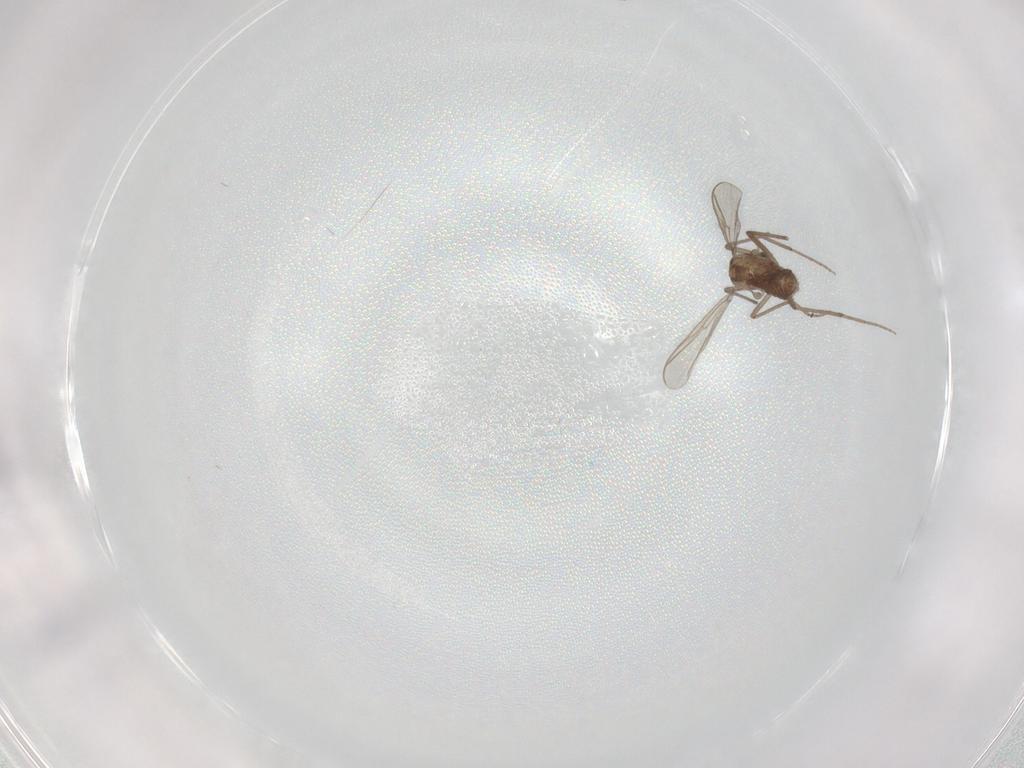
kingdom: Animalia
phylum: Arthropoda
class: Insecta
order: Diptera
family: Chironomidae
